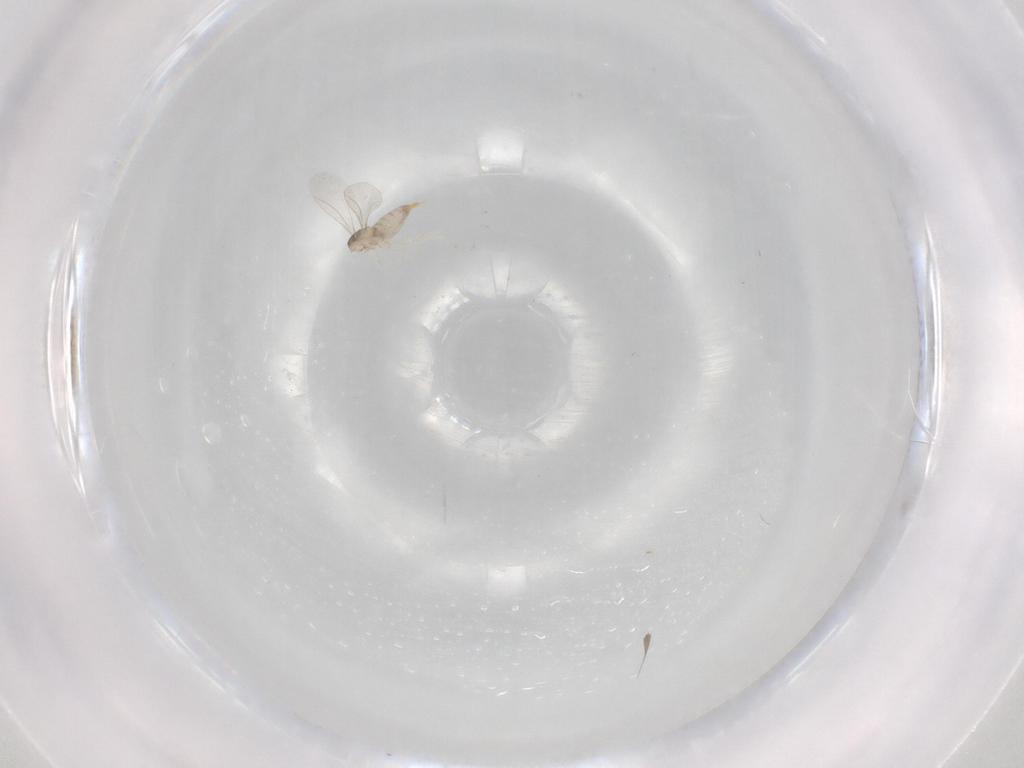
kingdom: Animalia
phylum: Arthropoda
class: Insecta
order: Diptera
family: Cecidomyiidae
